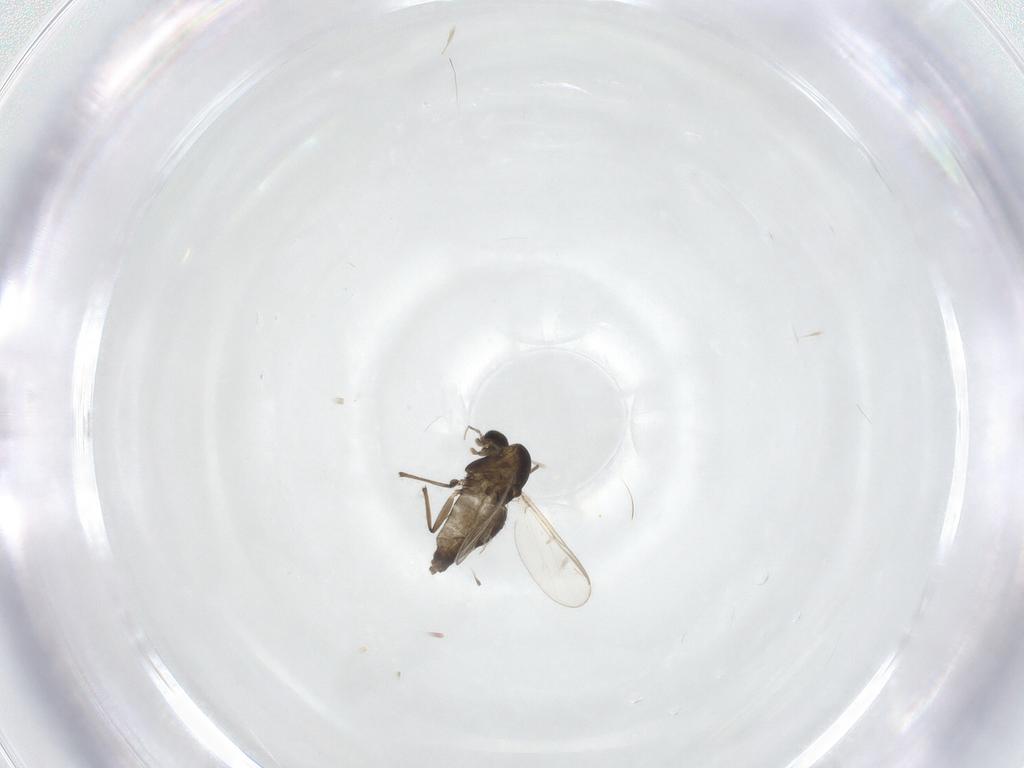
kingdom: Animalia
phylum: Arthropoda
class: Insecta
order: Diptera
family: Chironomidae
